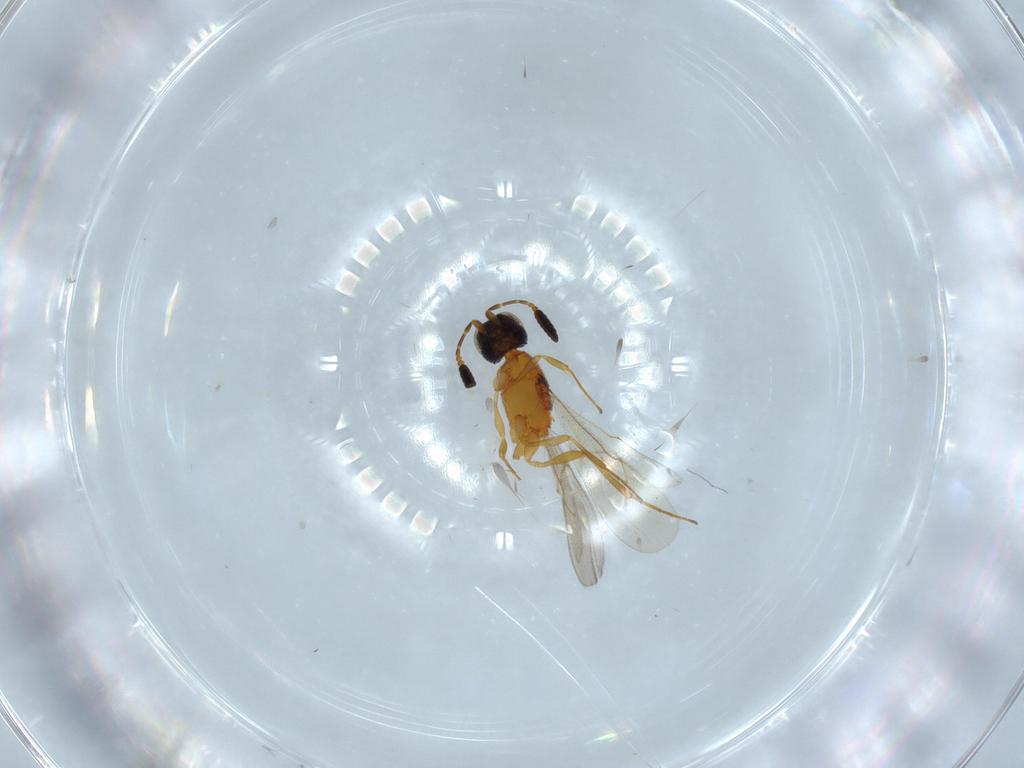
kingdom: Animalia
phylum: Arthropoda
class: Insecta
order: Hymenoptera
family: Scelionidae
